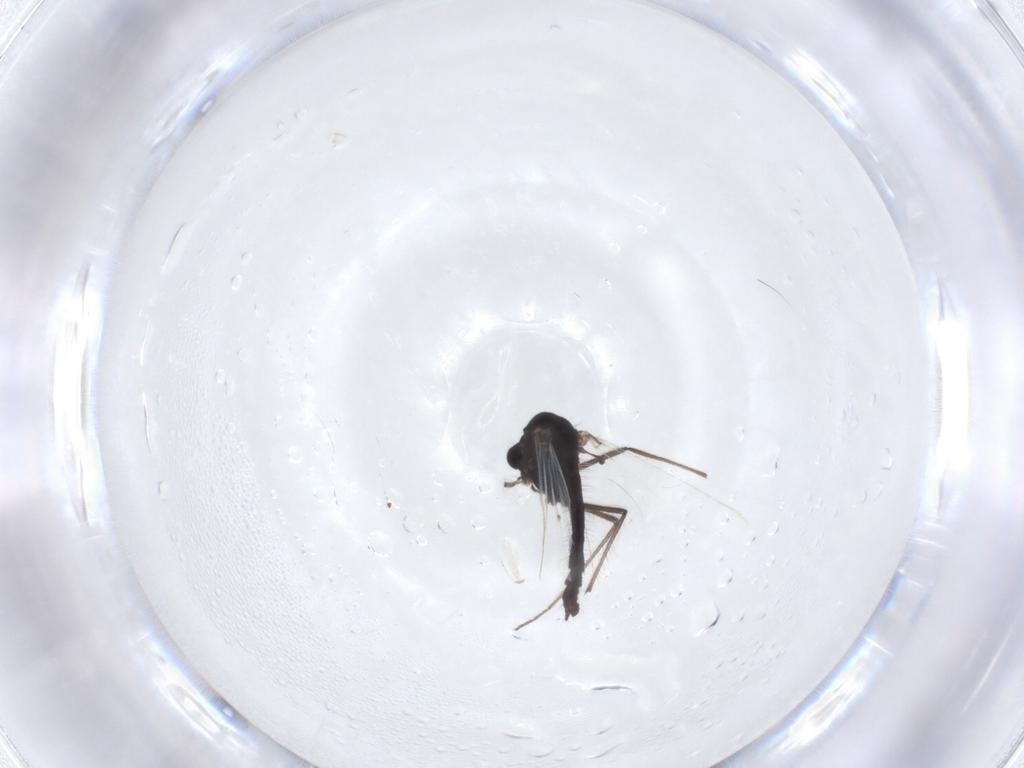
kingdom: Animalia
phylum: Arthropoda
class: Insecta
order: Diptera
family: Chironomidae
